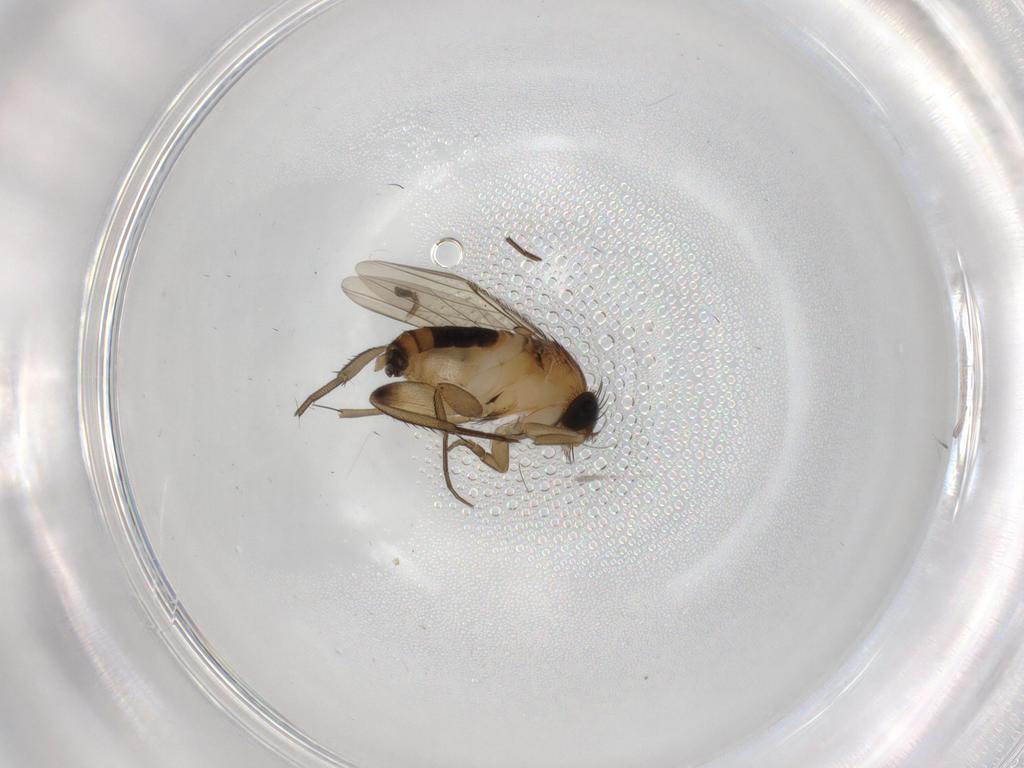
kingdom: Animalia
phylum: Arthropoda
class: Insecta
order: Diptera
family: Phoridae
